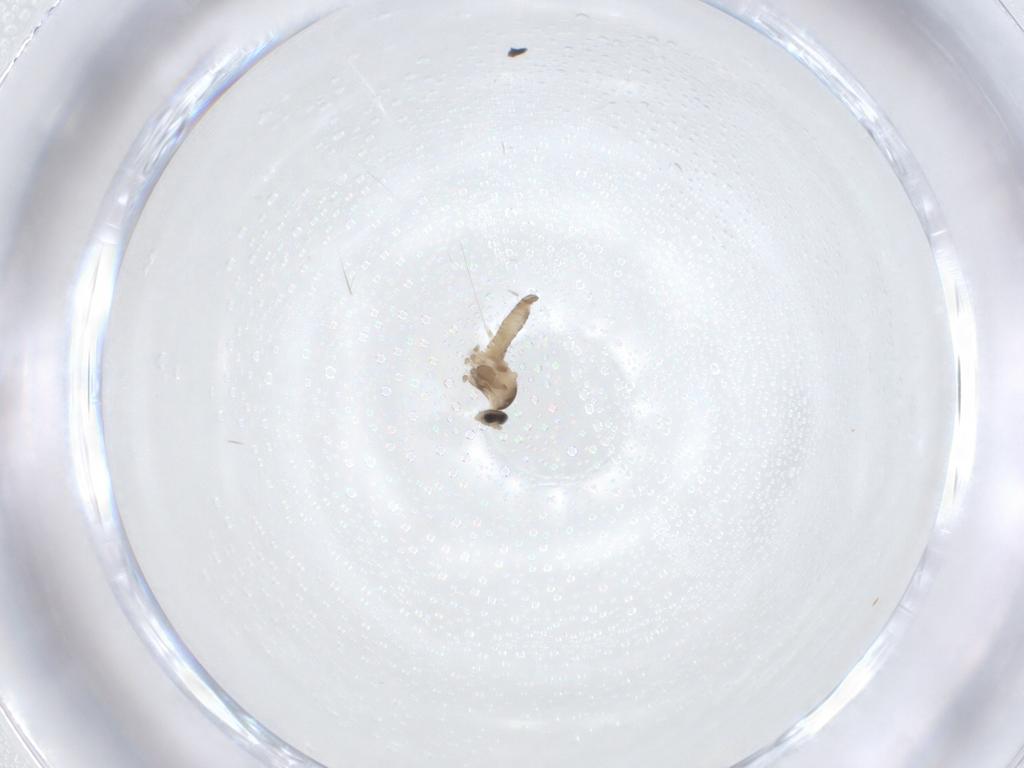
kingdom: Animalia
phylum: Arthropoda
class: Insecta
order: Diptera
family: Cecidomyiidae
